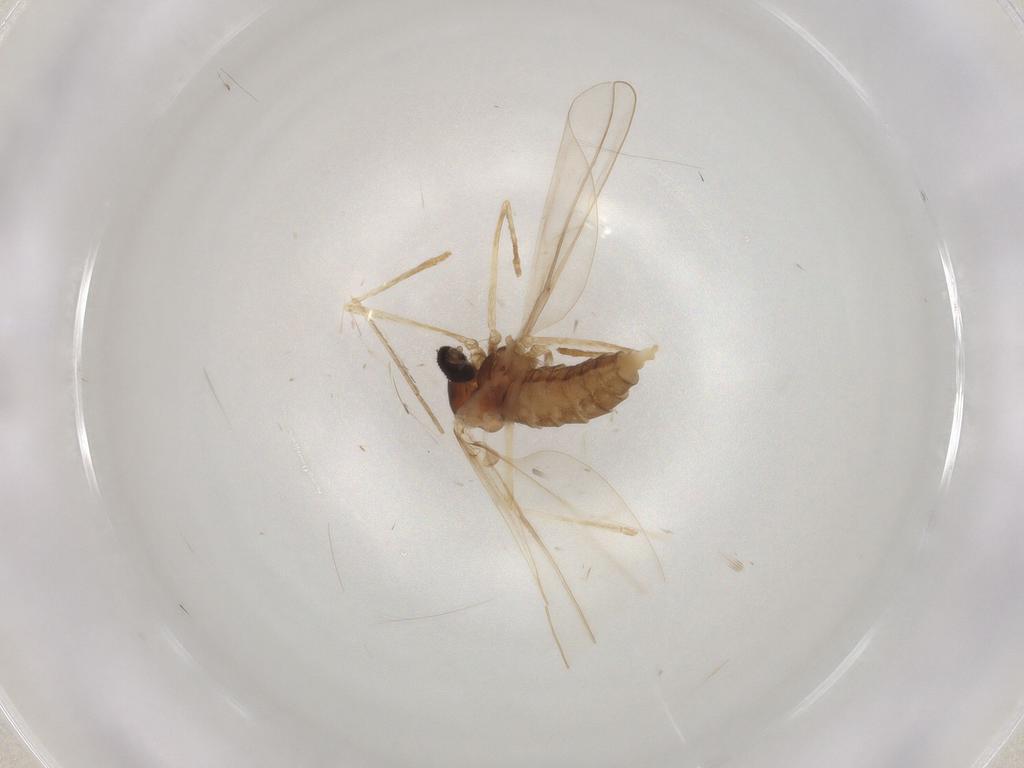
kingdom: Animalia
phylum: Arthropoda
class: Insecta
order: Diptera
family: Cecidomyiidae
